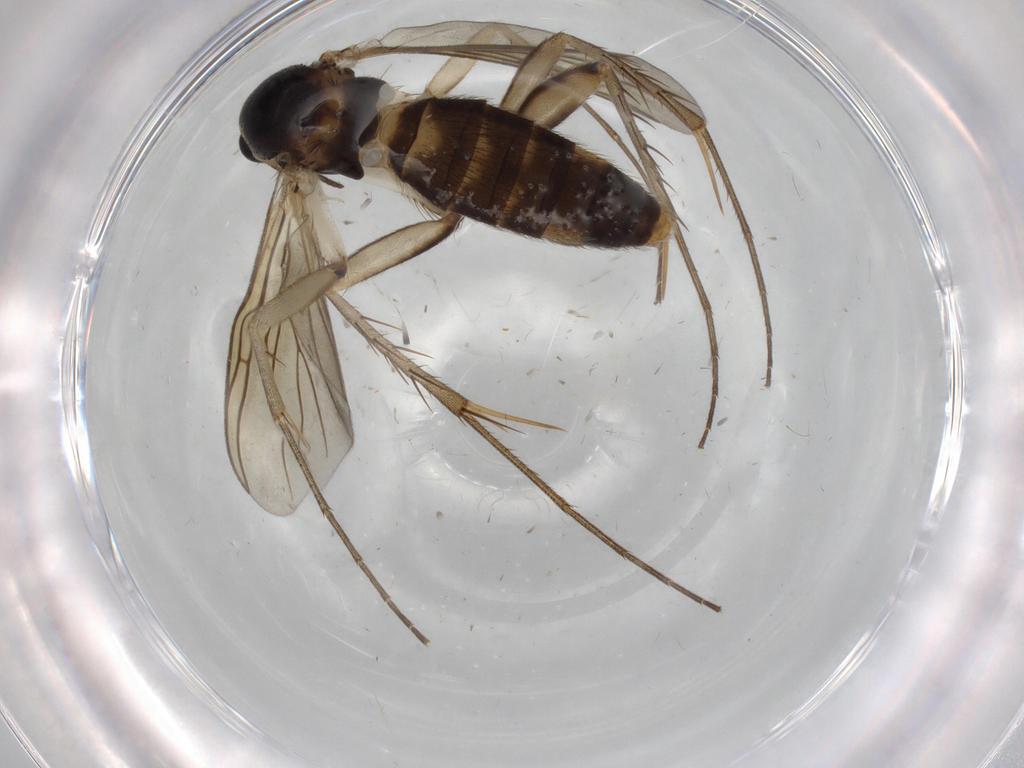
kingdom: Animalia
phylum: Arthropoda
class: Insecta
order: Diptera
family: Mycetophilidae
